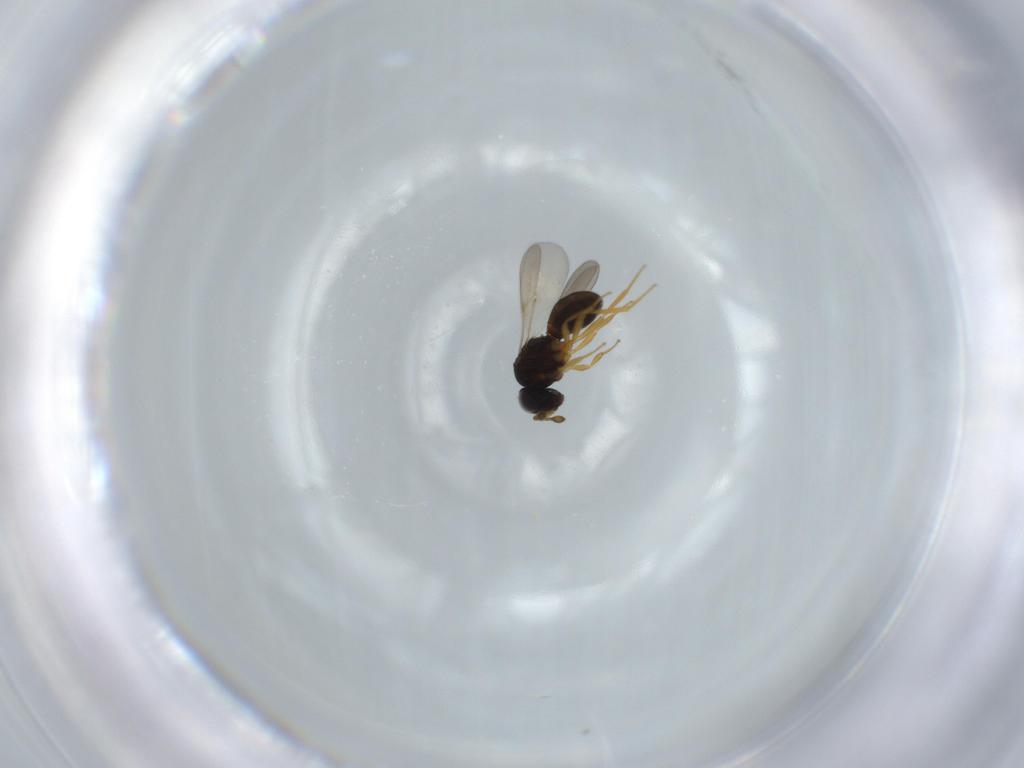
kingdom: Animalia
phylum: Arthropoda
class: Insecta
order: Hymenoptera
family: Scelionidae
